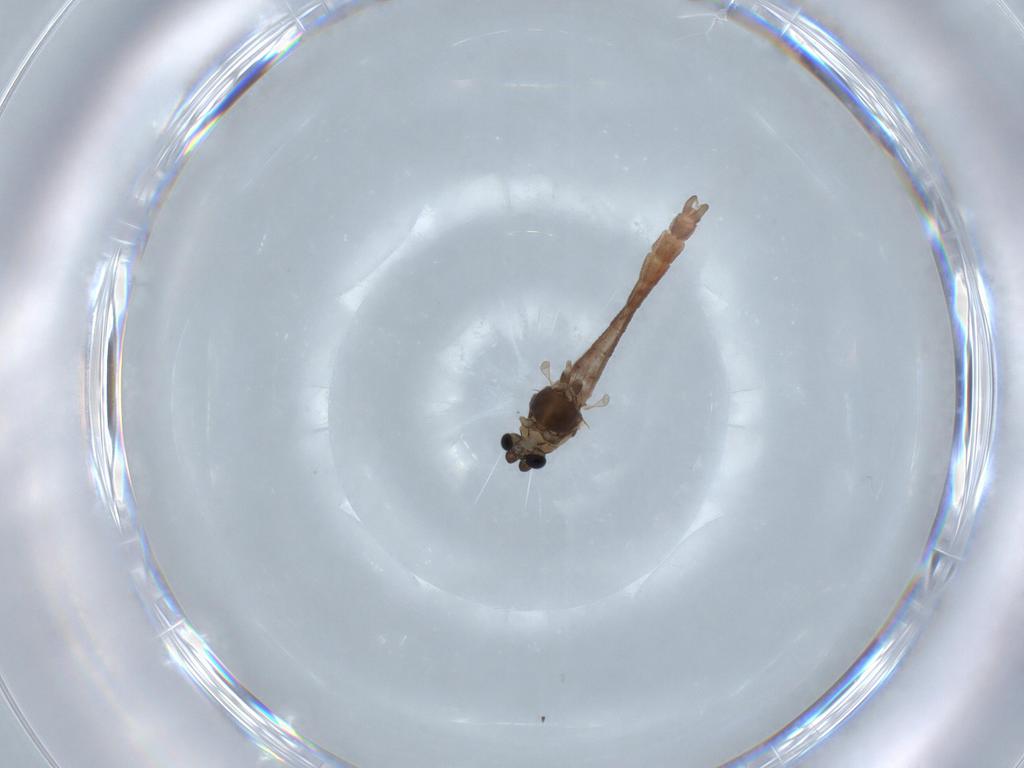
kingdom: Animalia
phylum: Arthropoda
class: Insecta
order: Diptera
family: Chironomidae
